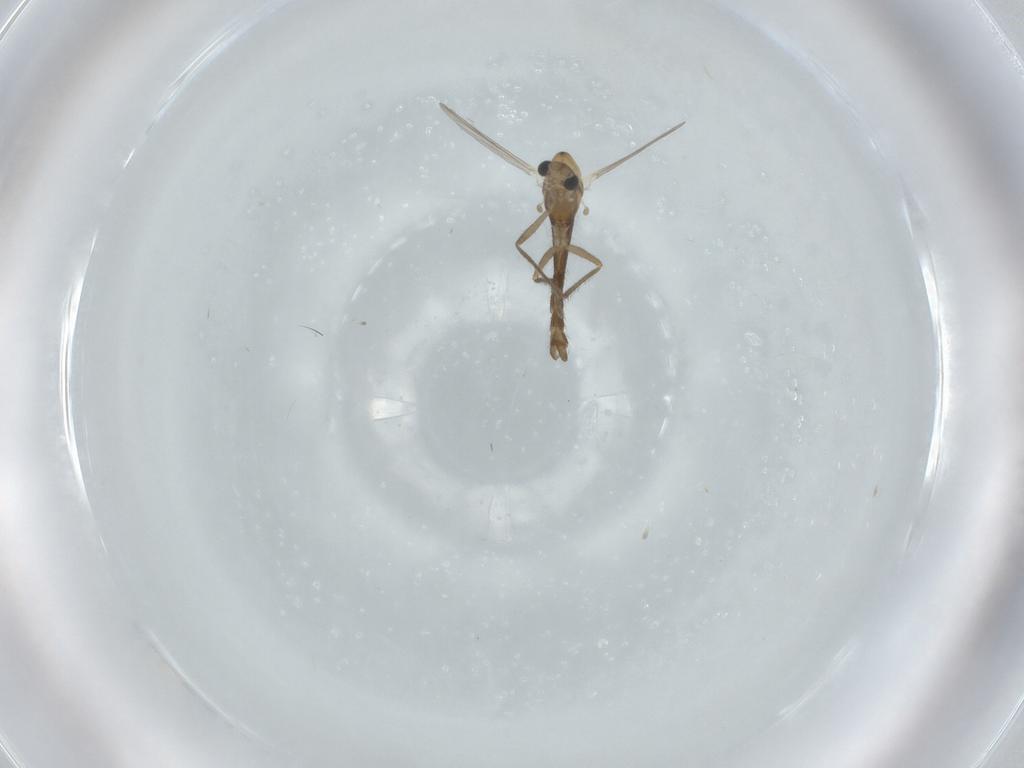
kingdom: Animalia
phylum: Arthropoda
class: Insecta
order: Diptera
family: Chironomidae
